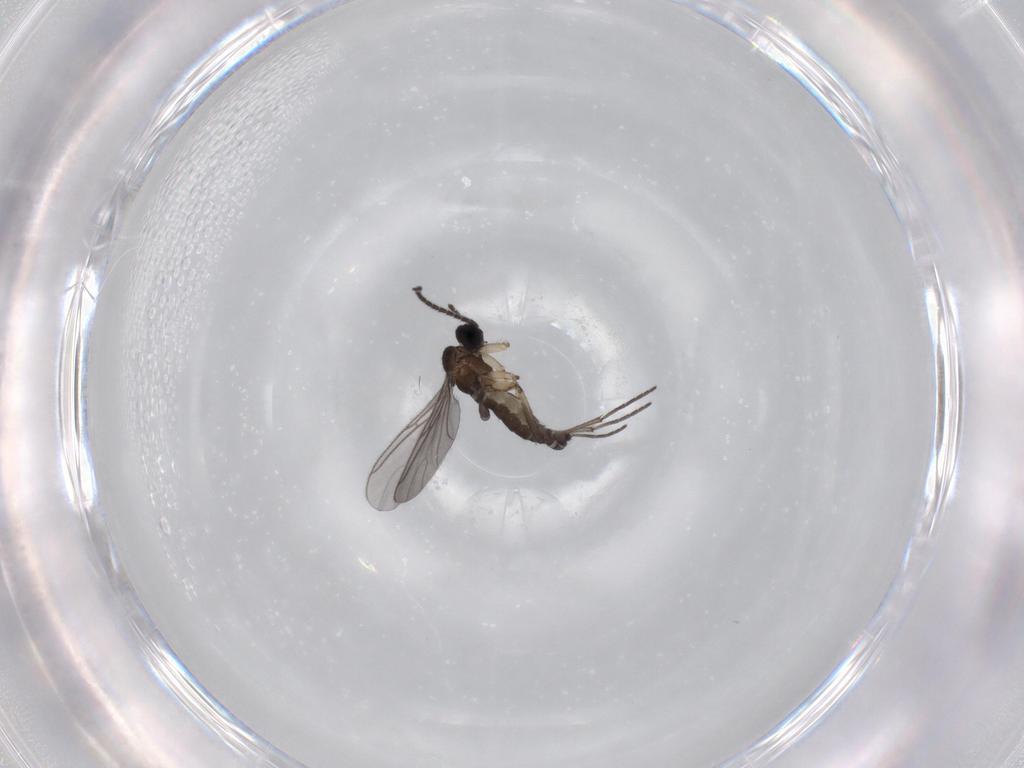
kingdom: Animalia
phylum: Arthropoda
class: Insecta
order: Diptera
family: Sciaridae
